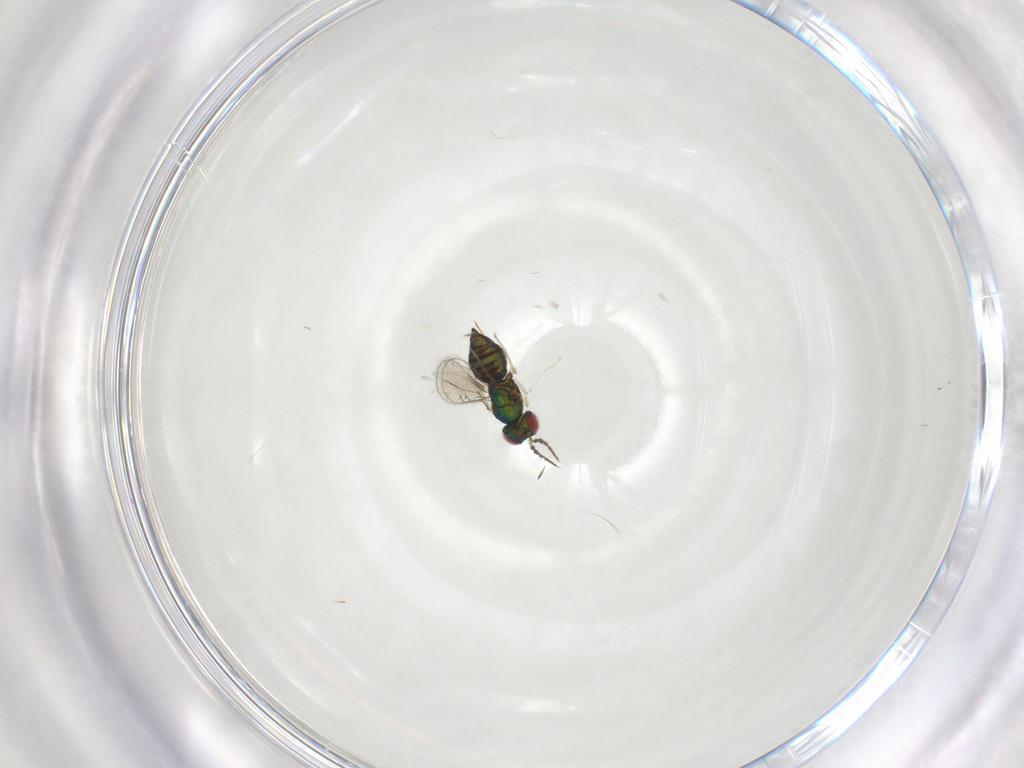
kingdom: Animalia
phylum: Arthropoda
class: Insecta
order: Hymenoptera
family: Eulophidae
